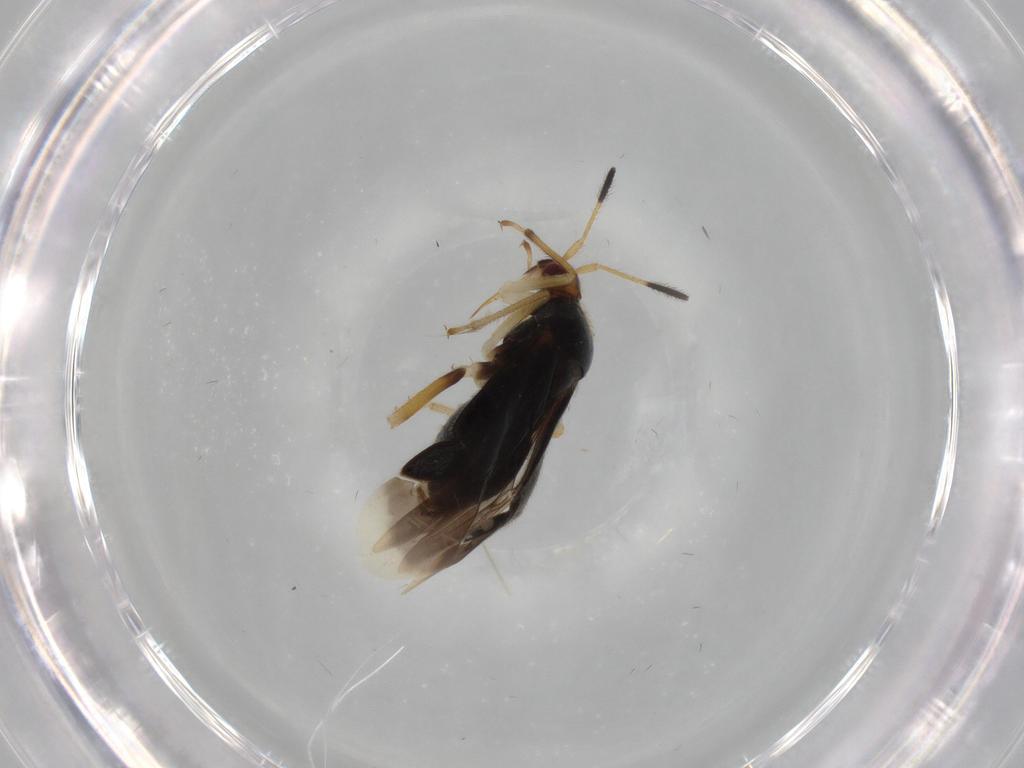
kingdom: Animalia
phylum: Arthropoda
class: Insecta
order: Hemiptera
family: Miridae
